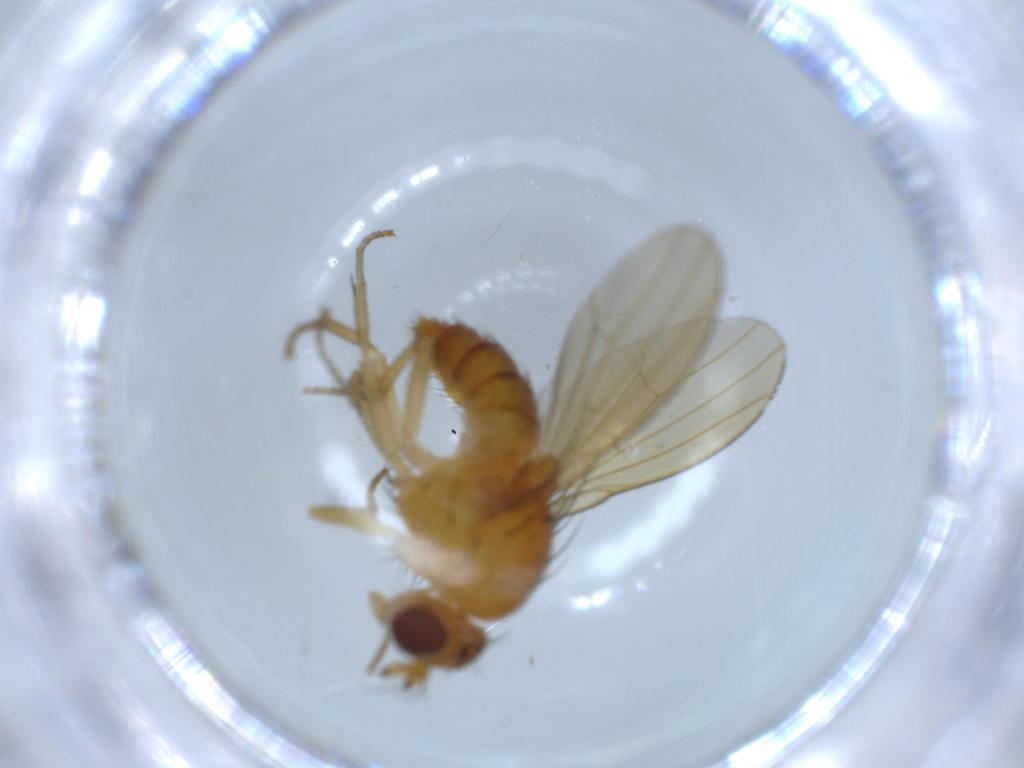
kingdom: Animalia
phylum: Arthropoda
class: Insecta
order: Diptera
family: Lauxaniidae
